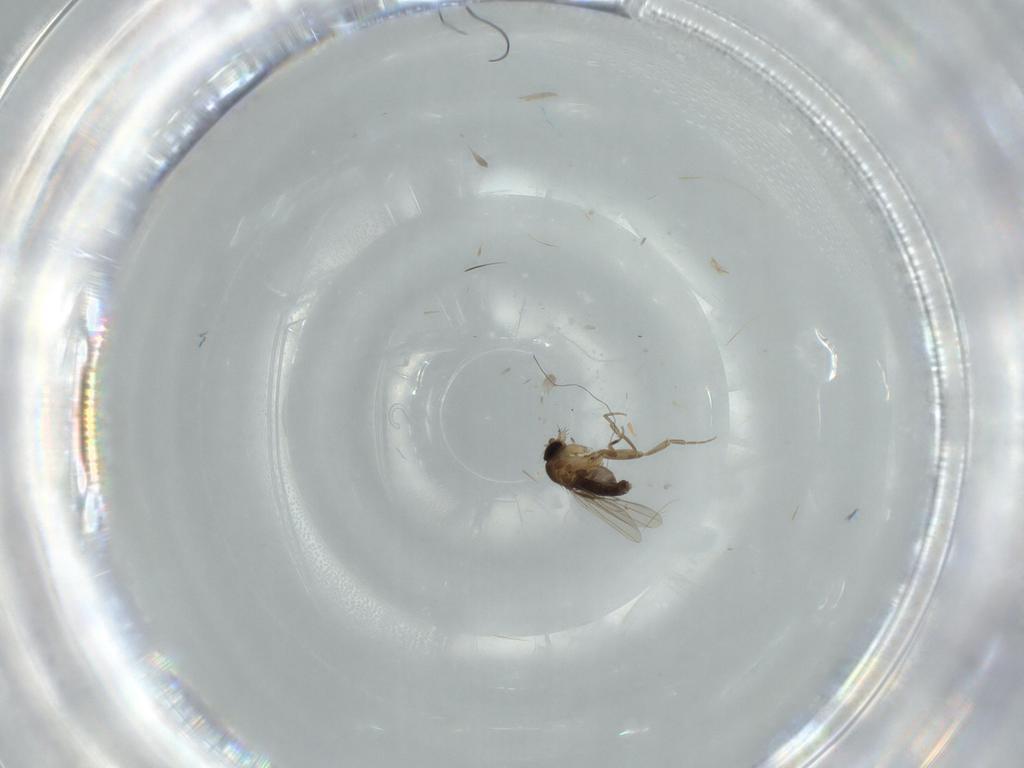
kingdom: Animalia
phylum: Arthropoda
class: Insecta
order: Diptera
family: Phoridae
